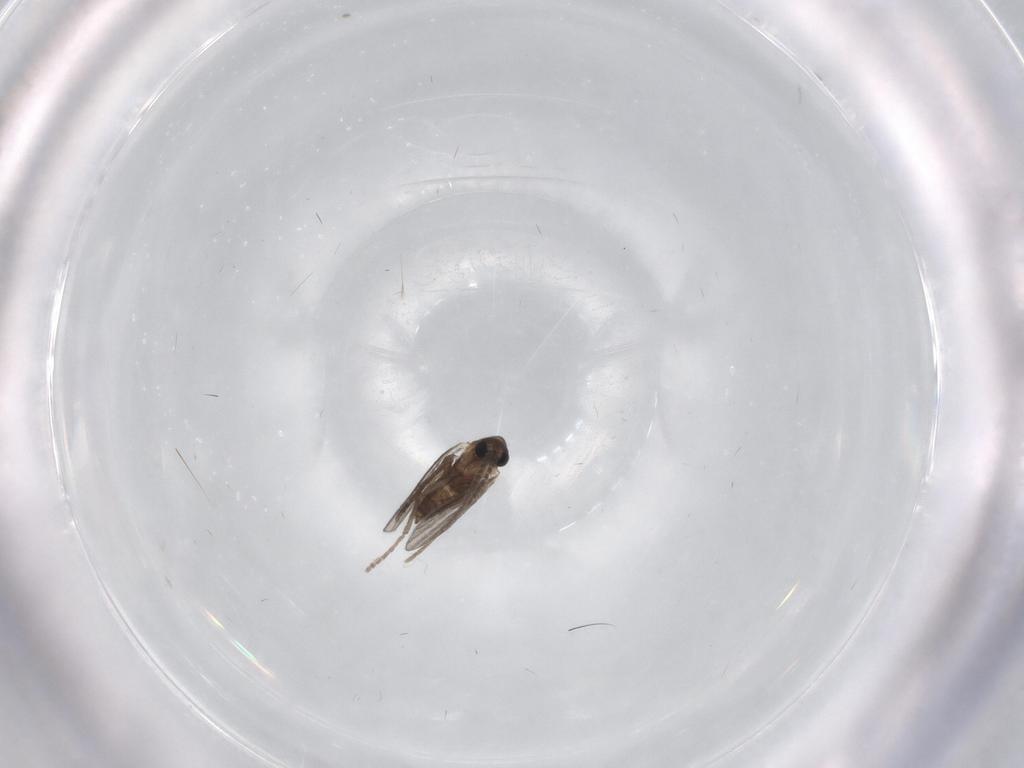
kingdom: Animalia
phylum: Arthropoda
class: Insecta
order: Diptera
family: Psychodidae
